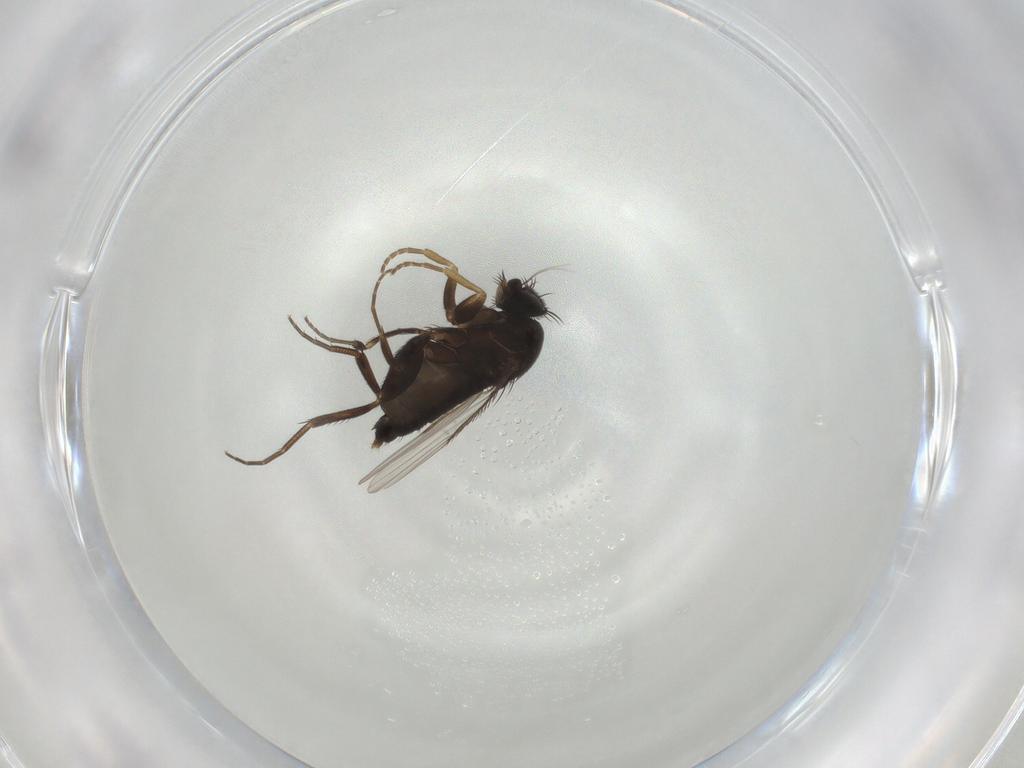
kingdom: Animalia
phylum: Arthropoda
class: Insecta
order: Diptera
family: Phoridae
